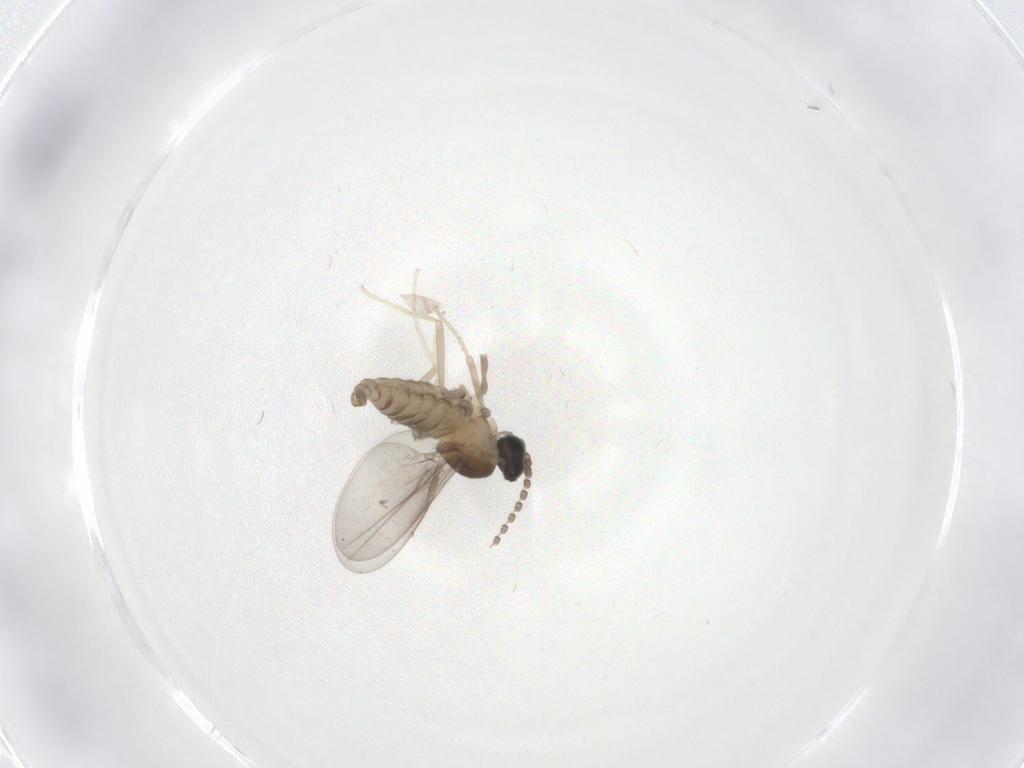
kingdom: Animalia
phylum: Arthropoda
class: Insecta
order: Diptera
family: Cecidomyiidae
